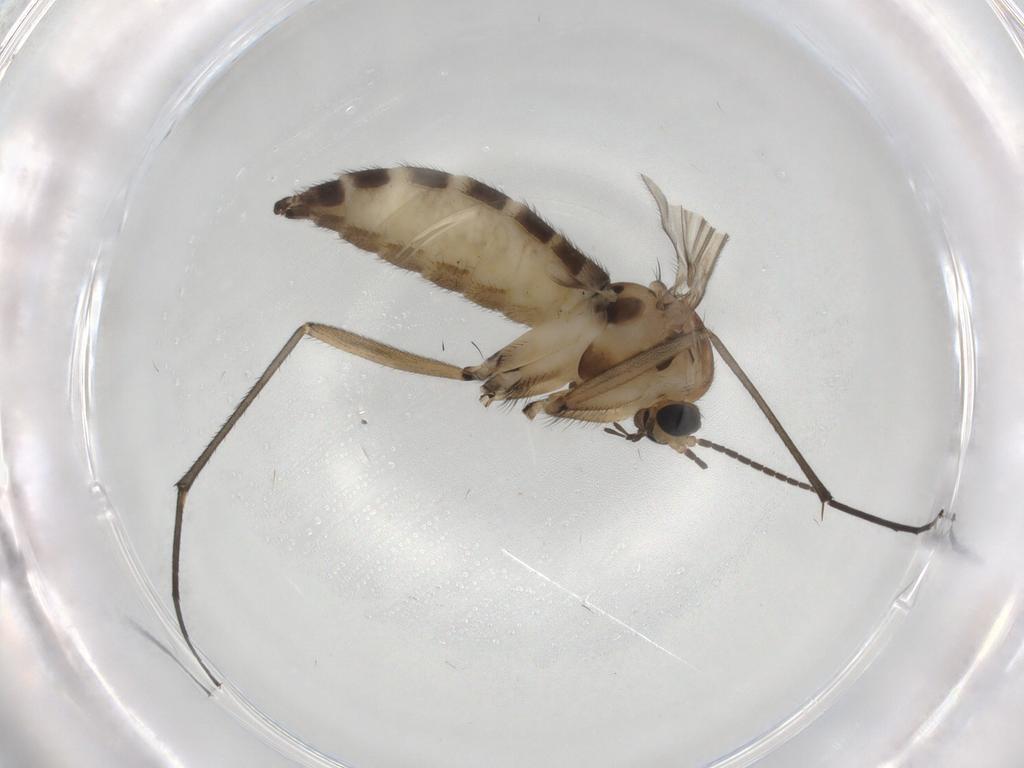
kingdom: Animalia
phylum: Arthropoda
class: Insecta
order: Diptera
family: Sciaridae
